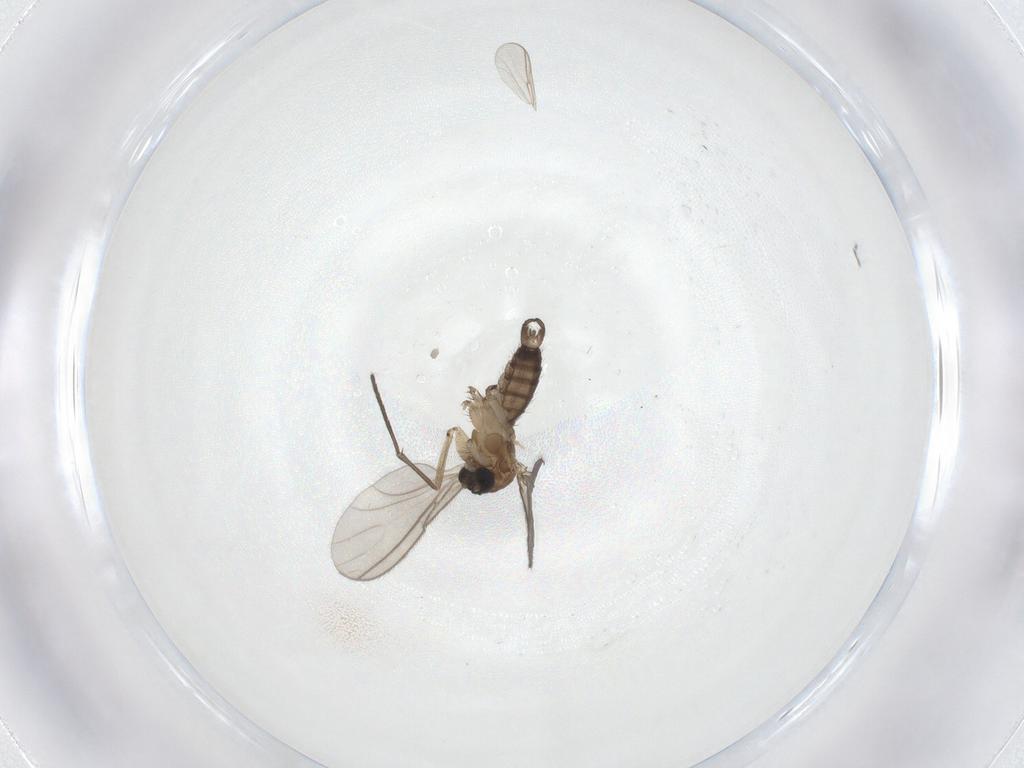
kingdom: Animalia
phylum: Arthropoda
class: Insecta
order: Diptera
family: Sciaridae
